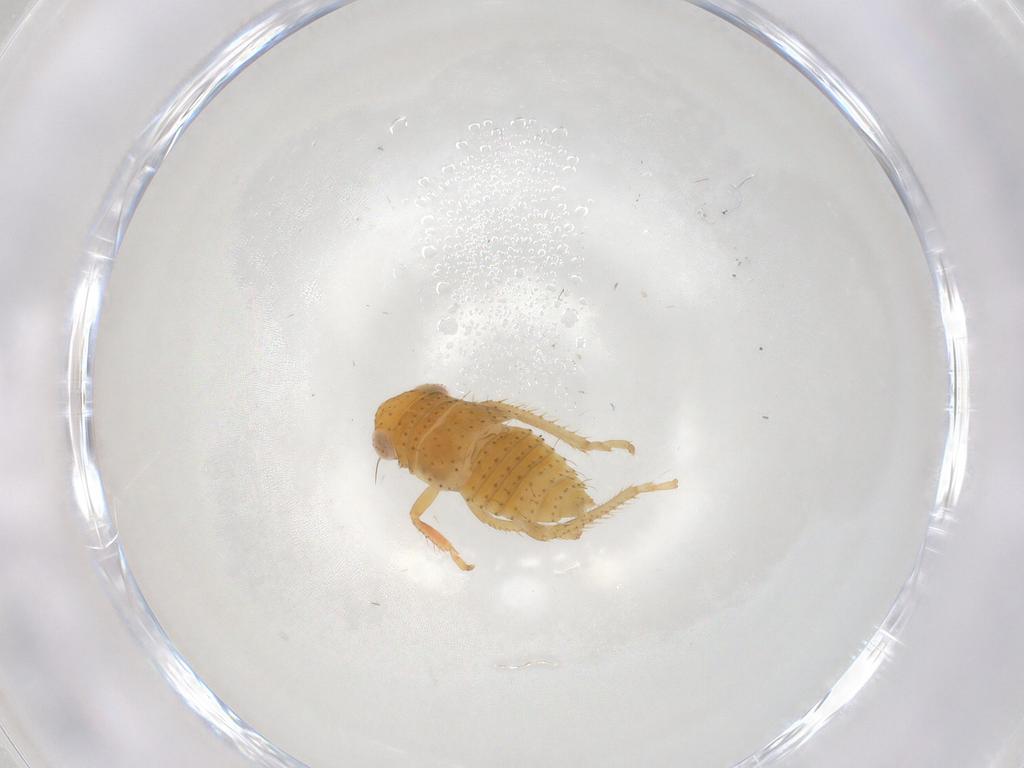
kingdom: Animalia
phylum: Arthropoda
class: Insecta
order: Hemiptera
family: Cicadellidae
